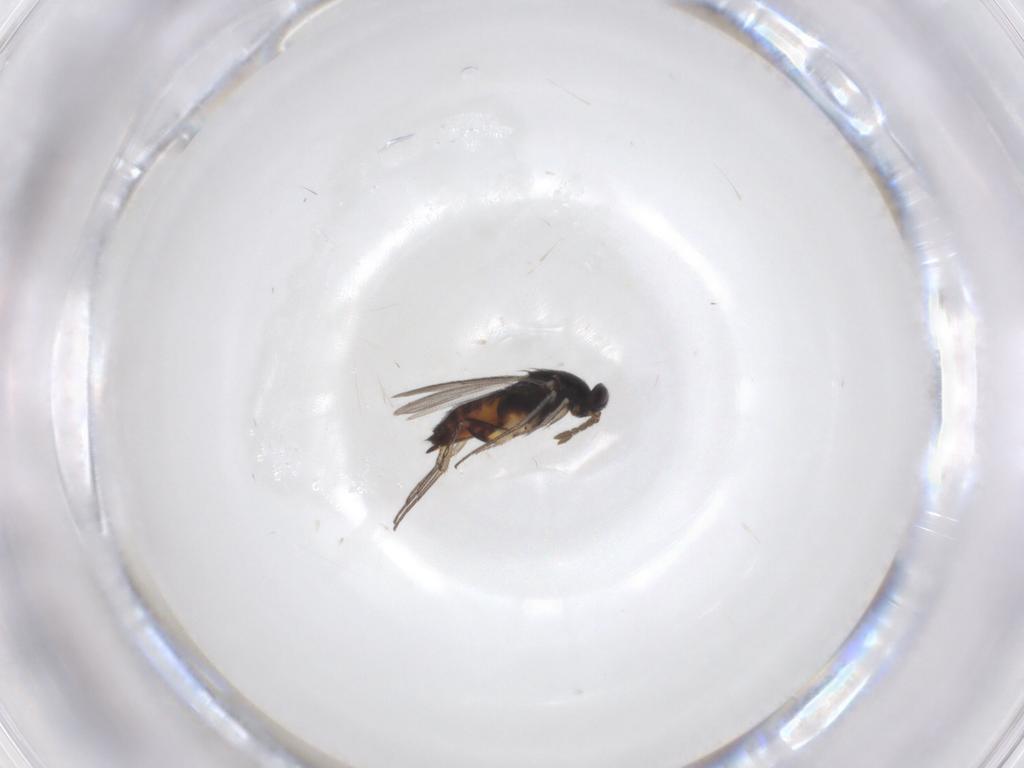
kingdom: Animalia
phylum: Arthropoda
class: Insecta
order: Hymenoptera
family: Eulophidae
